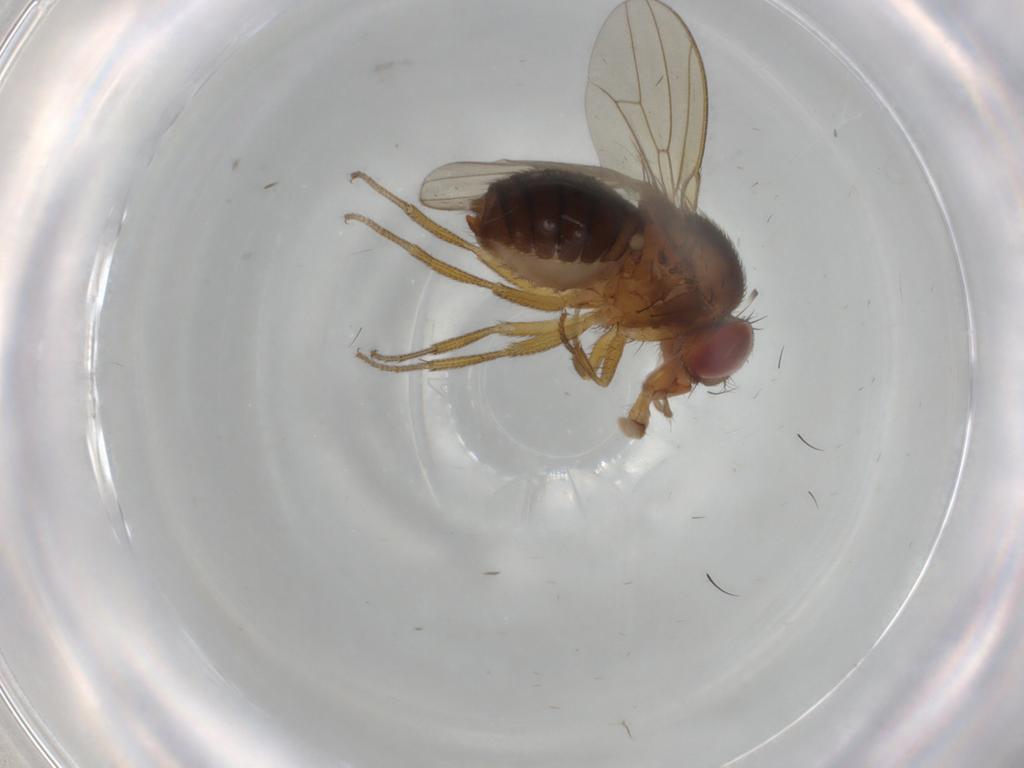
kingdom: Animalia
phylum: Arthropoda
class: Insecta
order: Diptera
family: Drosophilidae
